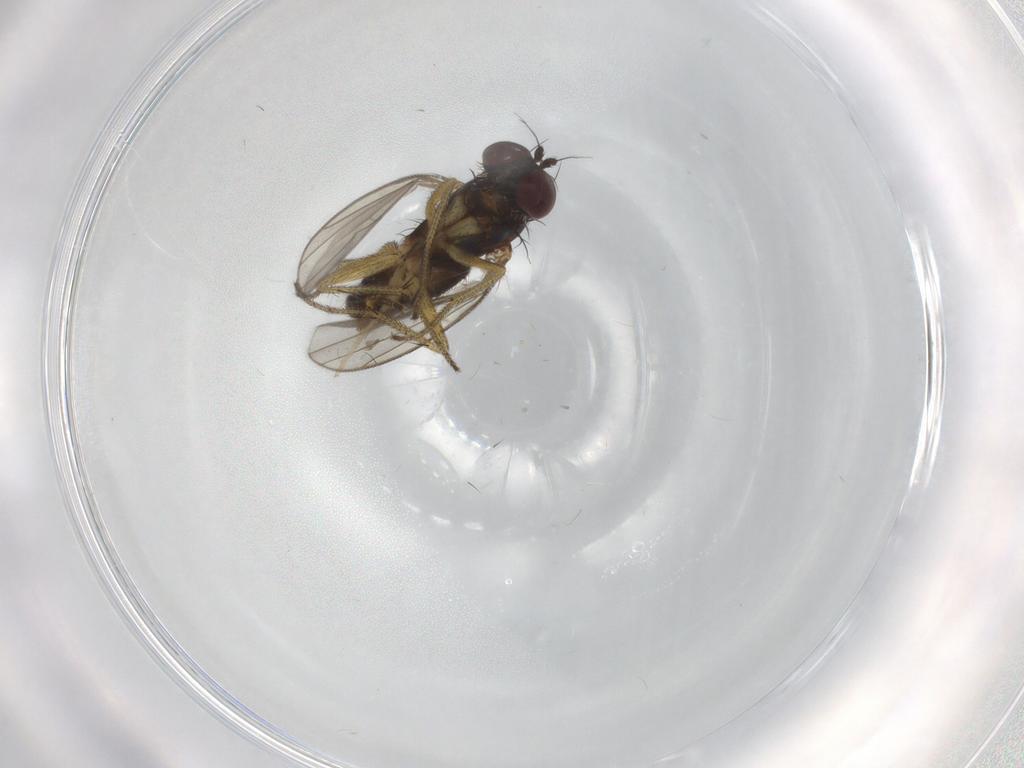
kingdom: Animalia
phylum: Arthropoda
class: Insecta
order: Diptera
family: Chironomidae
